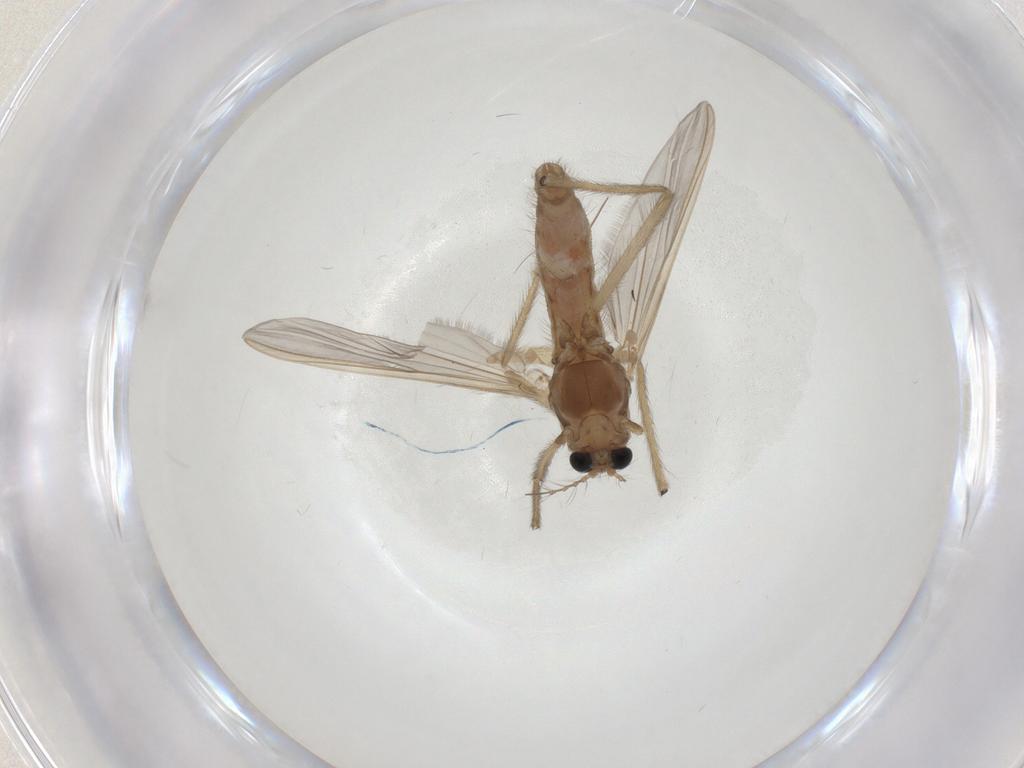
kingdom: Animalia
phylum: Arthropoda
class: Insecta
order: Diptera
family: Chironomidae
